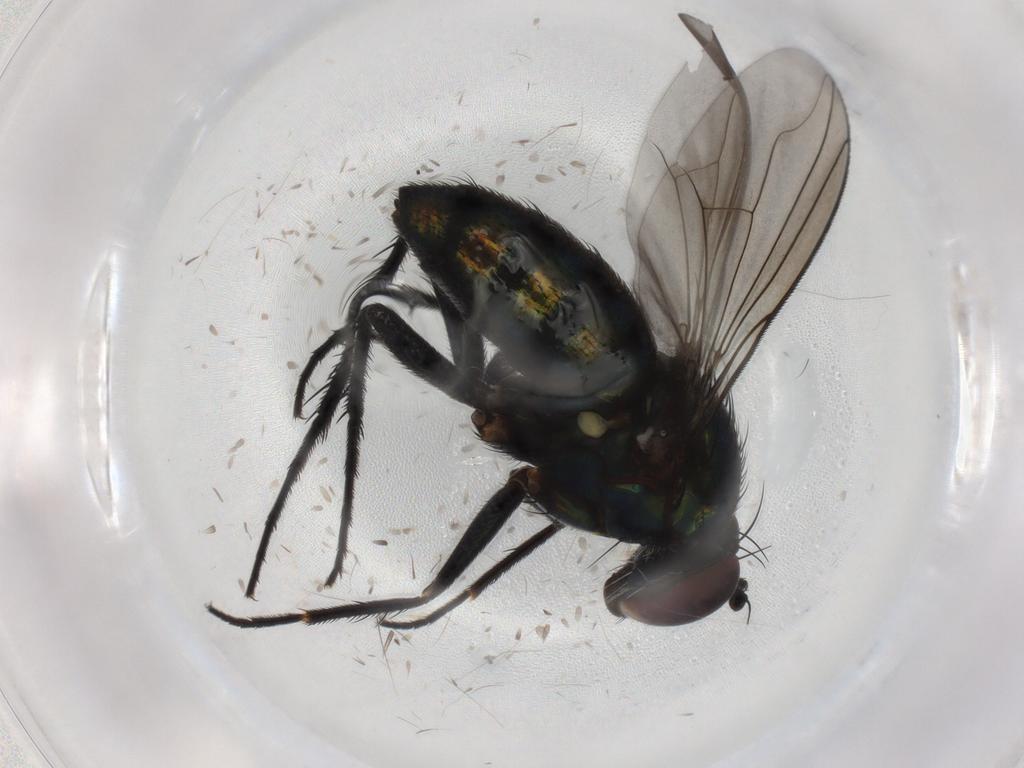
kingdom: Animalia
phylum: Arthropoda
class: Insecta
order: Diptera
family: Dolichopodidae
